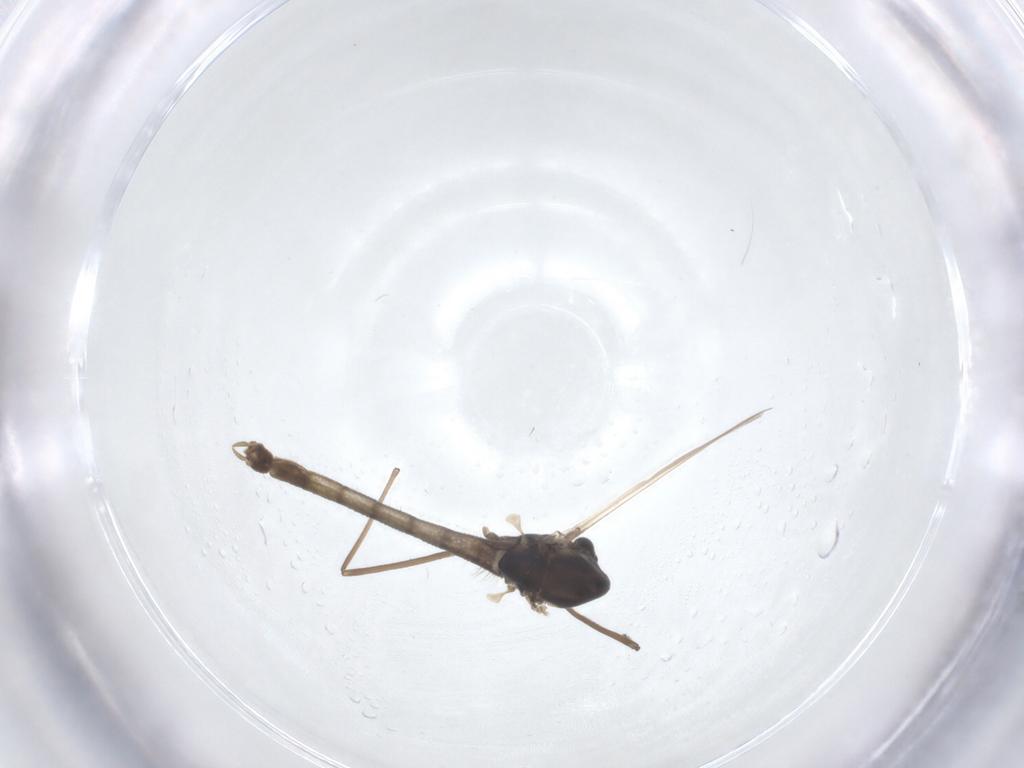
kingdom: Animalia
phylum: Arthropoda
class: Insecta
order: Diptera
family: Chironomidae
